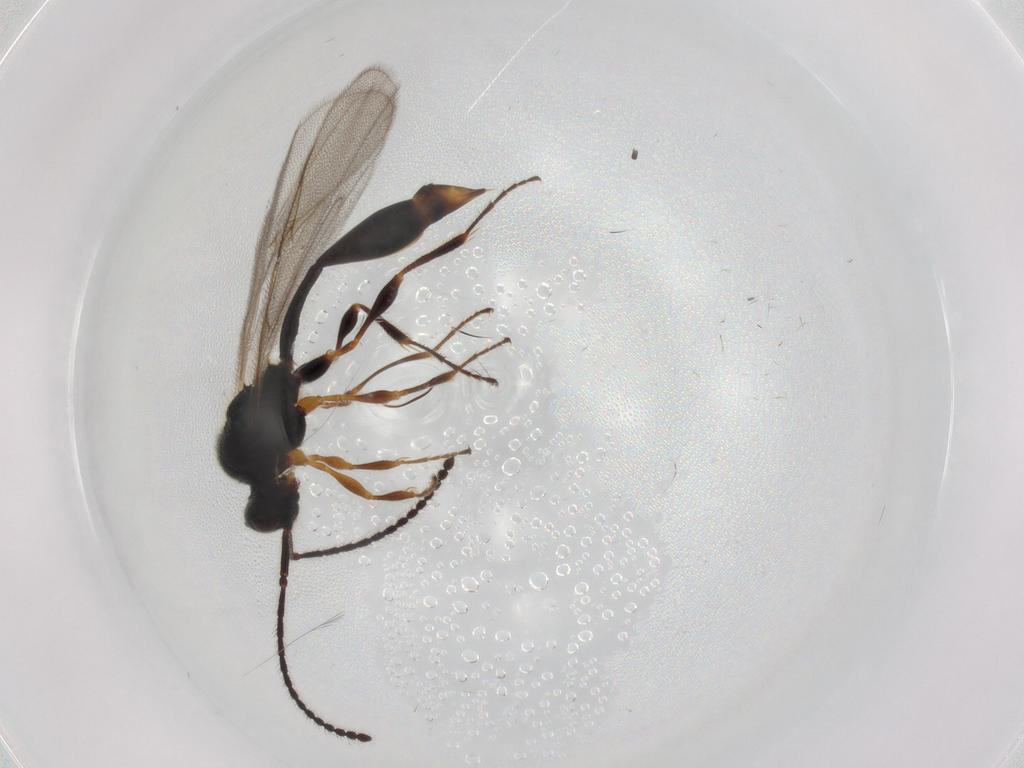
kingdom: Animalia
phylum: Arthropoda
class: Insecta
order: Hymenoptera
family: Diapriidae
